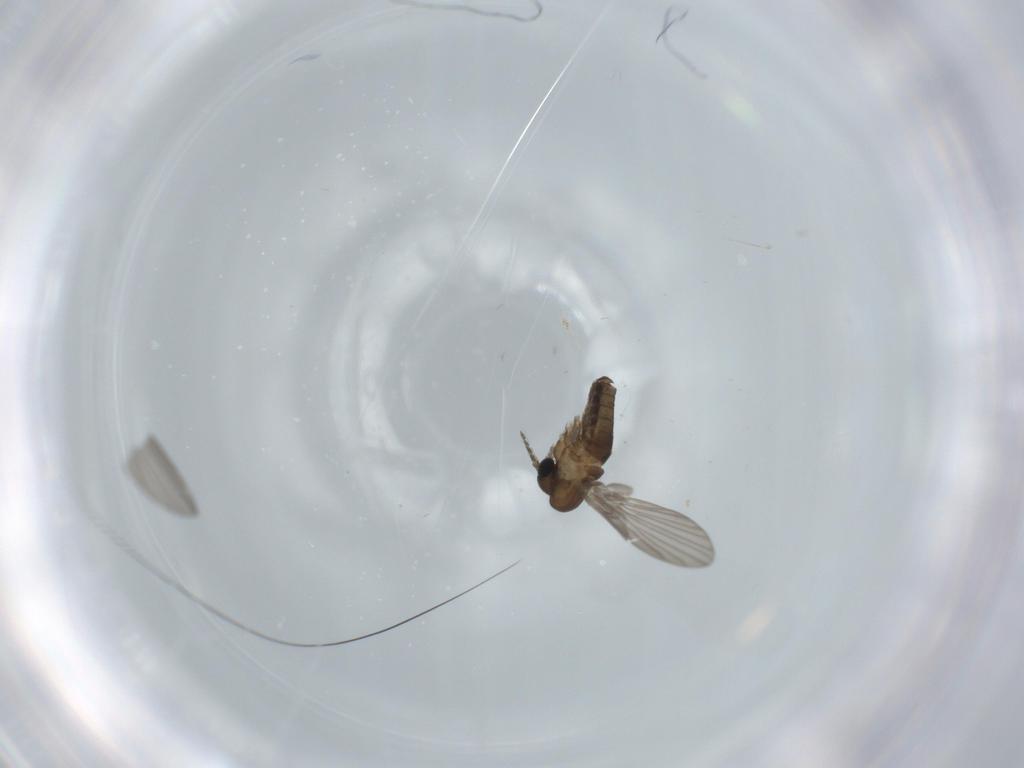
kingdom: Animalia
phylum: Arthropoda
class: Insecta
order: Diptera
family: Psychodidae
